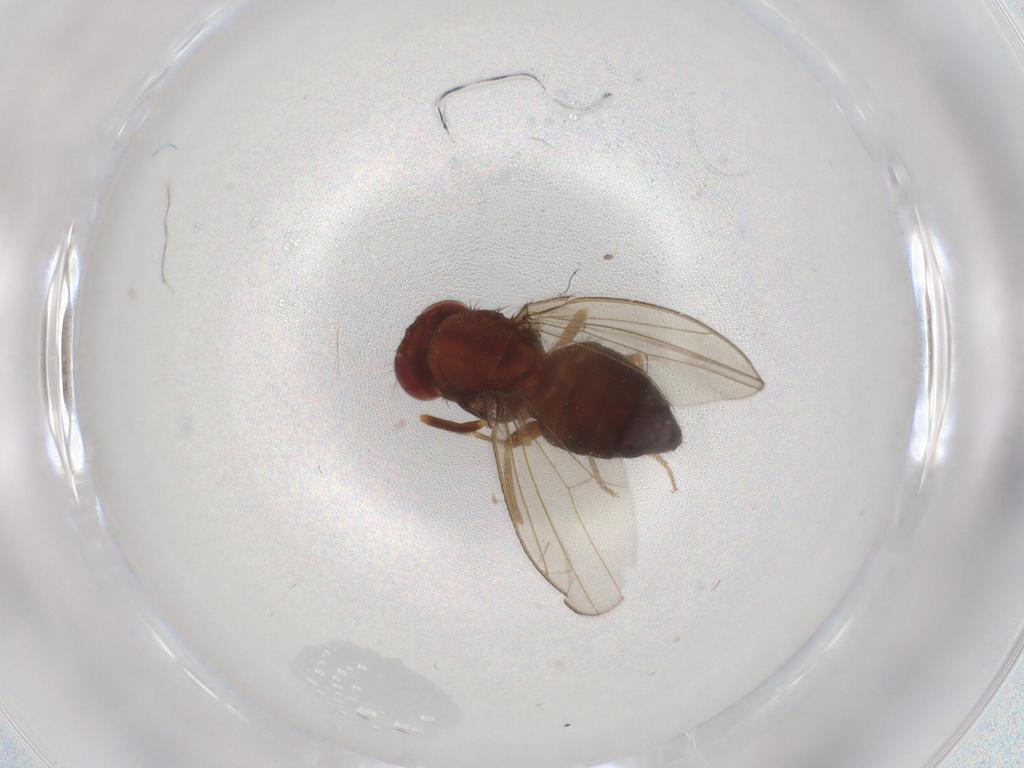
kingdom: Animalia
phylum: Arthropoda
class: Insecta
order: Diptera
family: Drosophilidae
